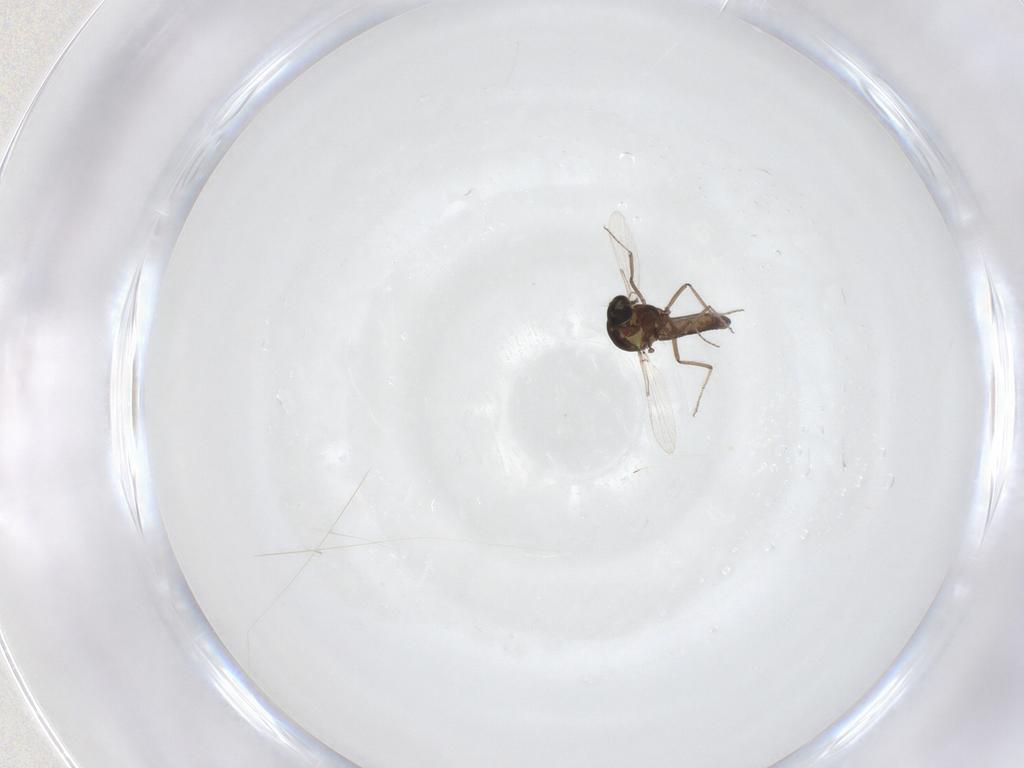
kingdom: Animalia
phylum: Arthropoda
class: Insecta
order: Diptera
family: Ceratopogonidae
